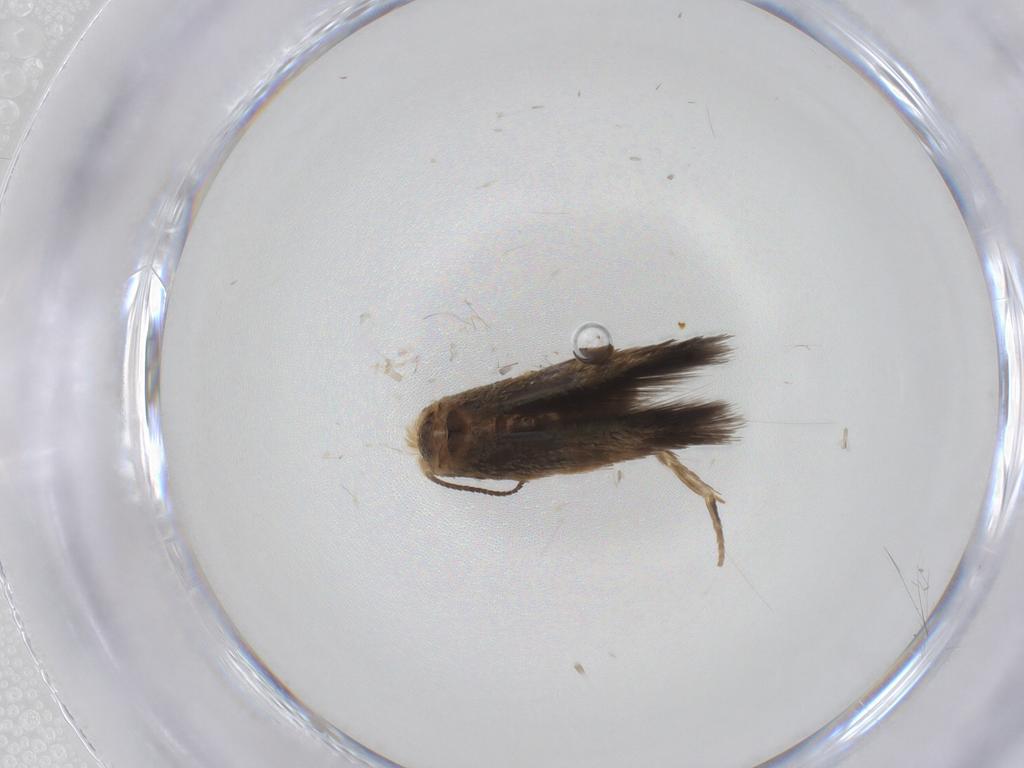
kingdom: Animalia
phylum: Arthropoda
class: Insecta
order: Lepidoptera
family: Nepticulidae
